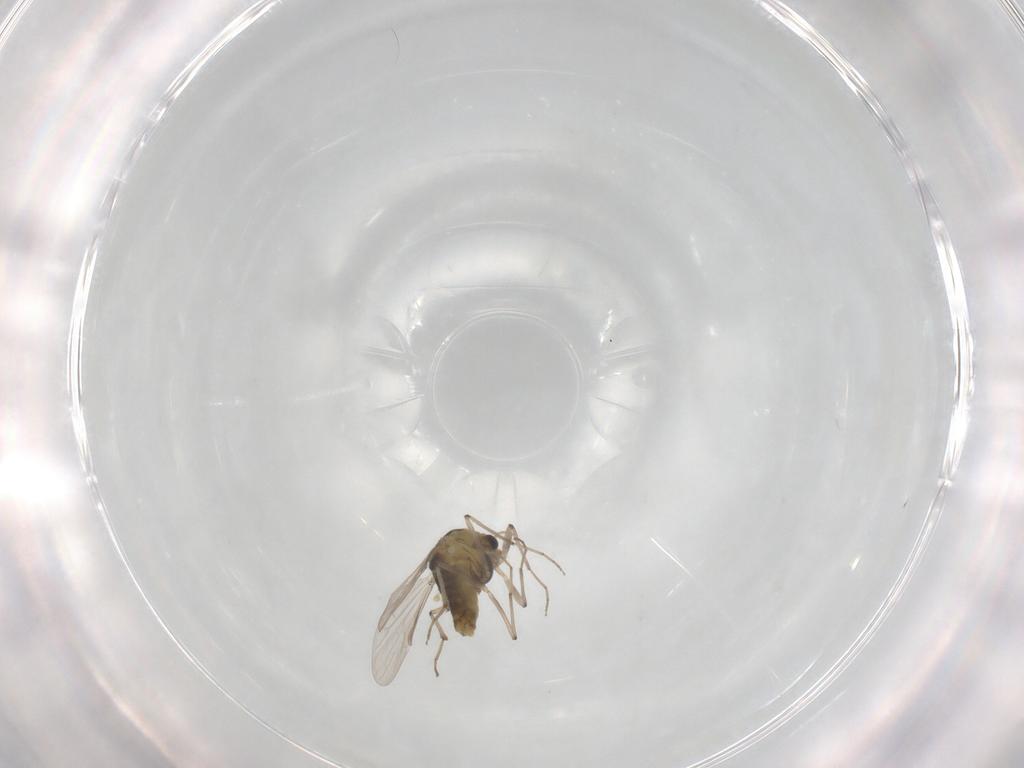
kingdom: Animalia
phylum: Arthropoda
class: Insecta
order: Diptera
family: Chironomidae
